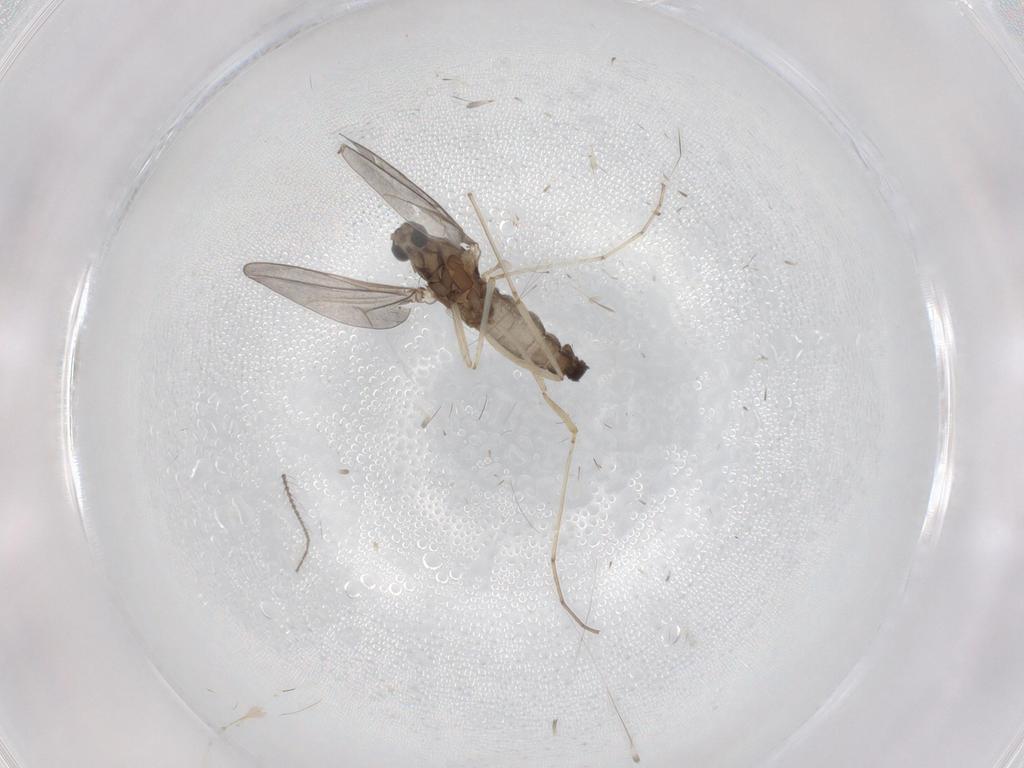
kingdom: Animalia
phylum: Arthropoda
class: Insecta
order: Diptera
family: Ceratopogonidae
